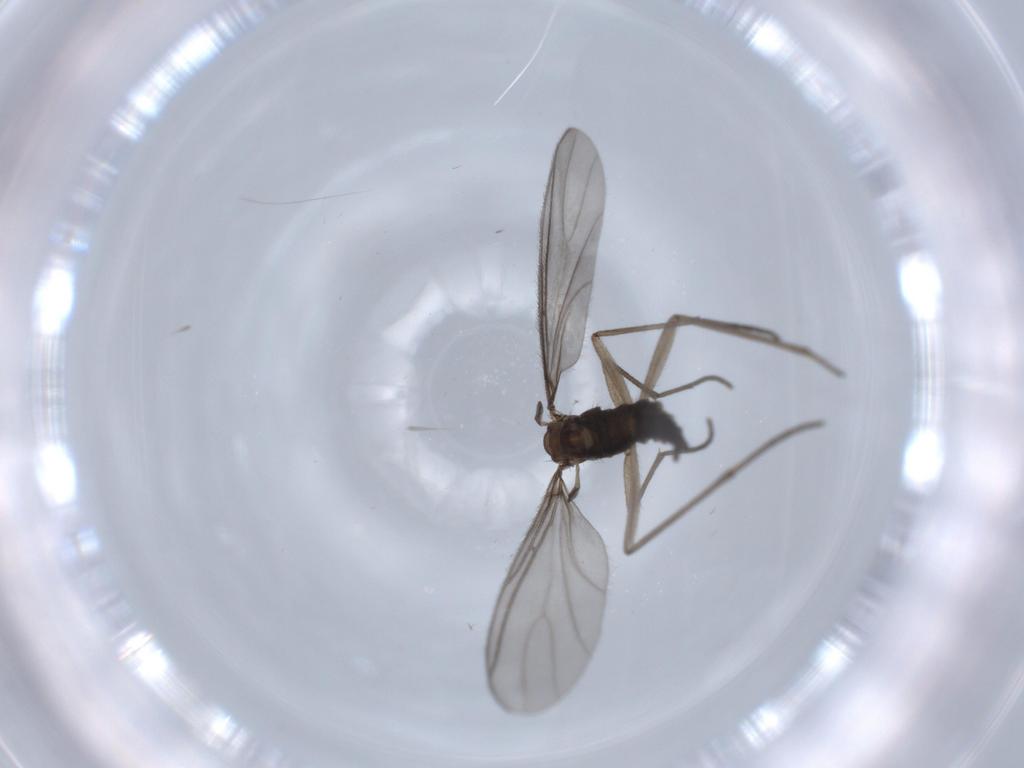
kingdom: Animalia
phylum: Arthropoda
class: Insecta
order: Diptera
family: Sciaridae
